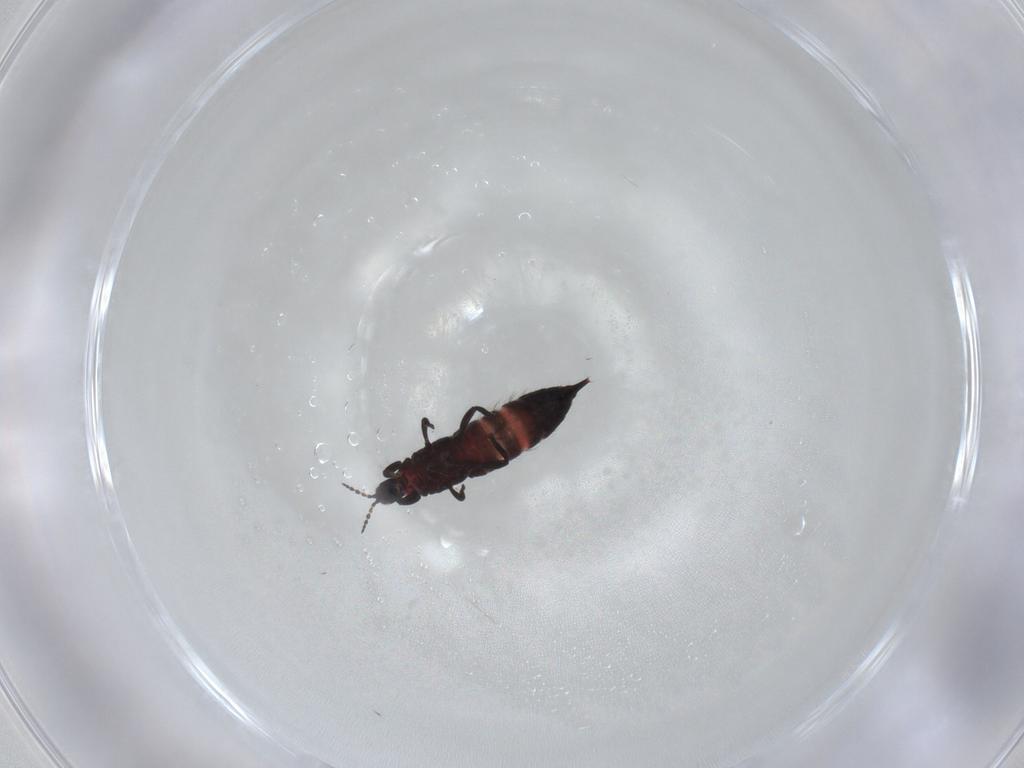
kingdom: Animalia
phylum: Arthropoda
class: Insecta
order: Thysanoptera
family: Phlaeothripidae
